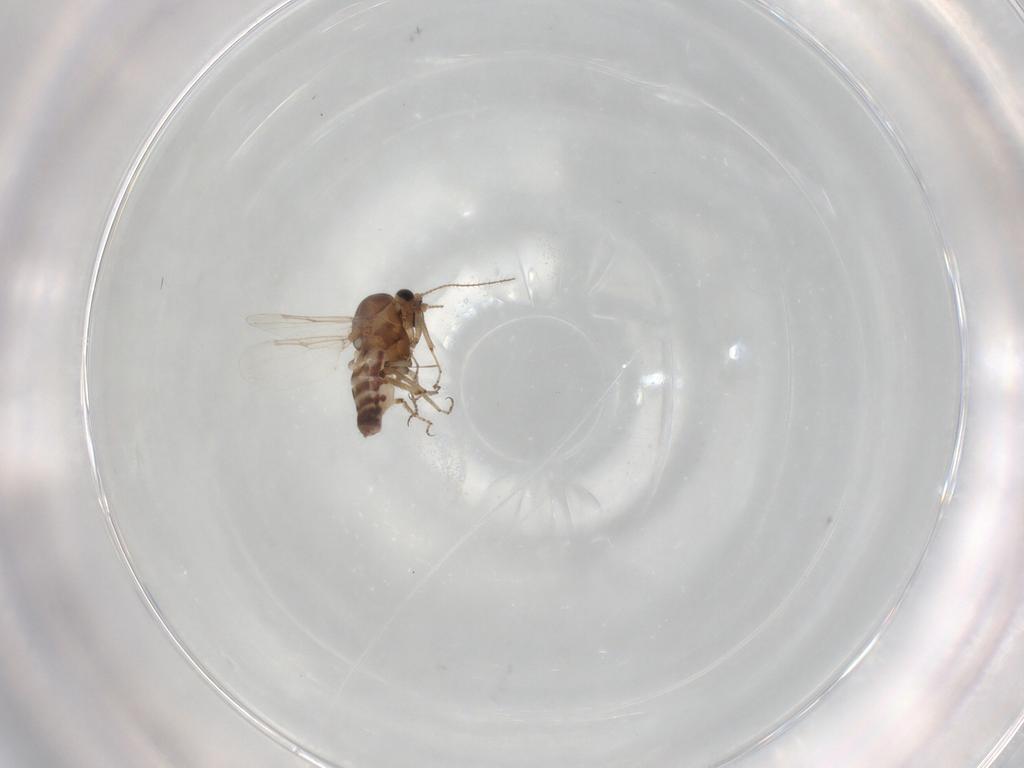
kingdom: Animalia
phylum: Arthropoda
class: Insecta
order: Diptera
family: Ceratopogonidae
